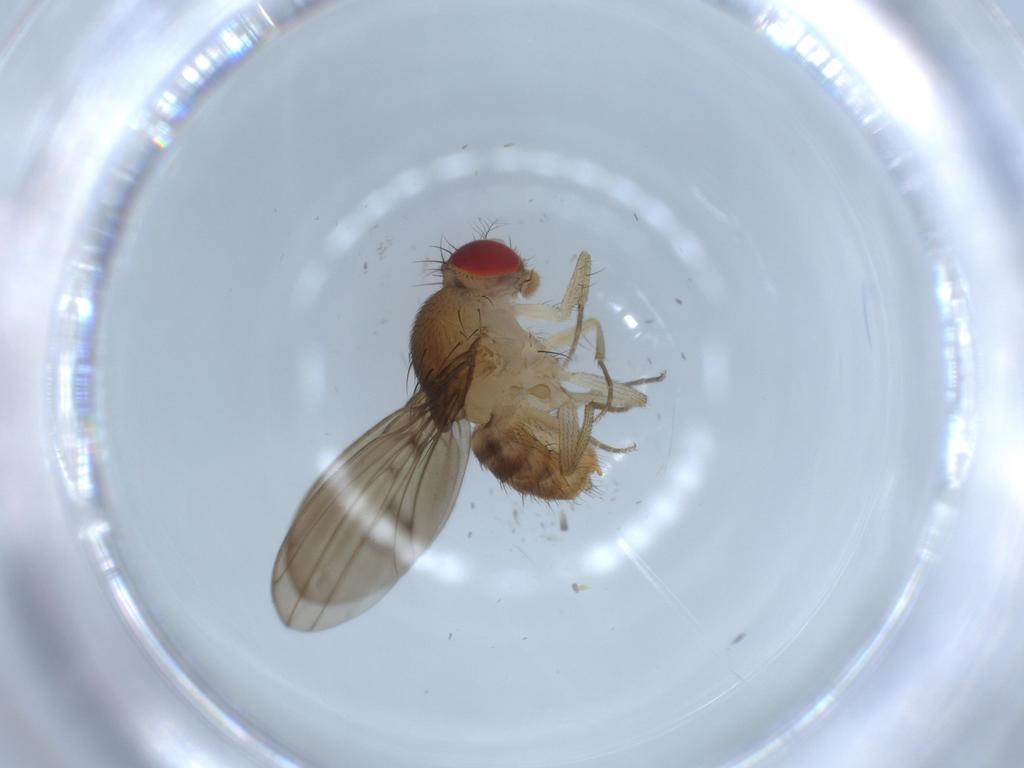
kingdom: Animalia
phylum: Arthropoda
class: Insecta
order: Diptera
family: Drosophilidae
